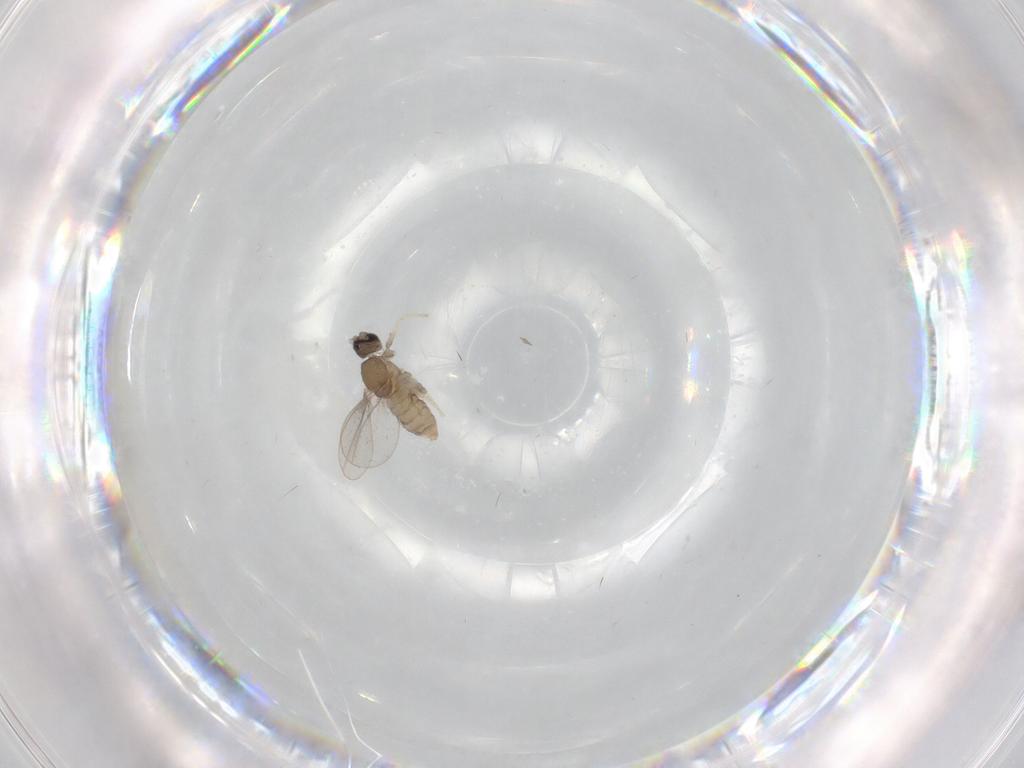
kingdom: Animalia
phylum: Arthropoda
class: Insecta
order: Diptera
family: Cecidomyiidae
